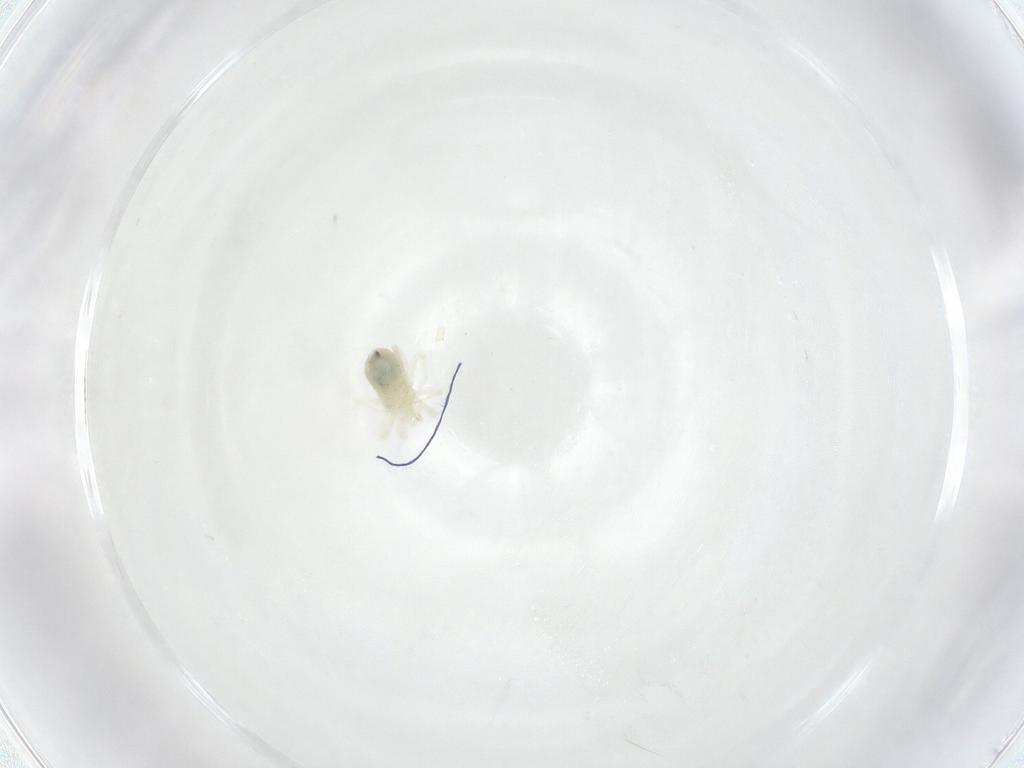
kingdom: Animalia
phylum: Arthropoda
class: Arachnida
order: Trombidiformes
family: Anystidae
